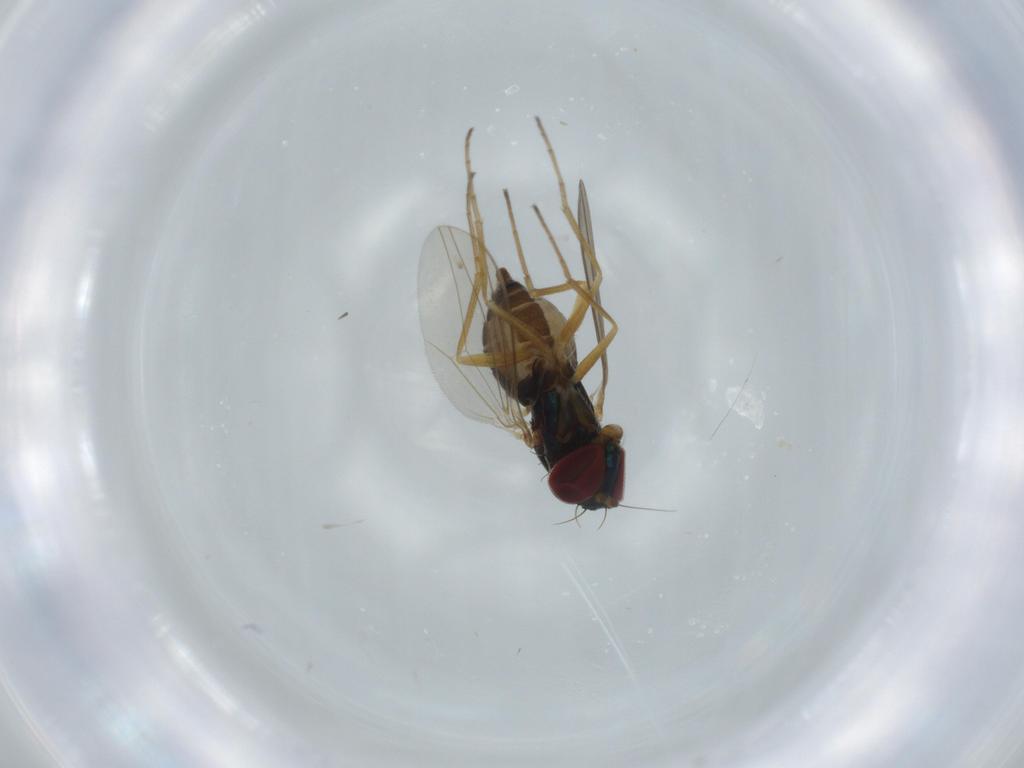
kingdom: Animalia
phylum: Arthropoda
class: Insecta
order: Diptera
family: Dolichopodidae
